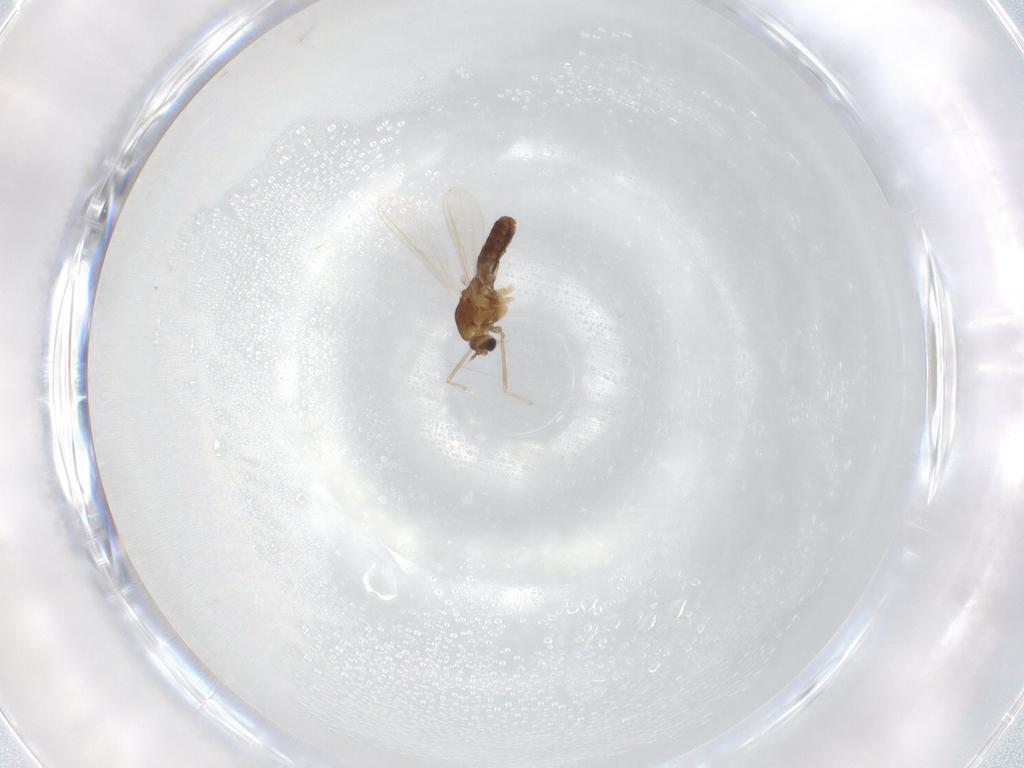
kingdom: Animalia
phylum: Arthropoda
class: Insecta
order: Diptera
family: Chironomidae
